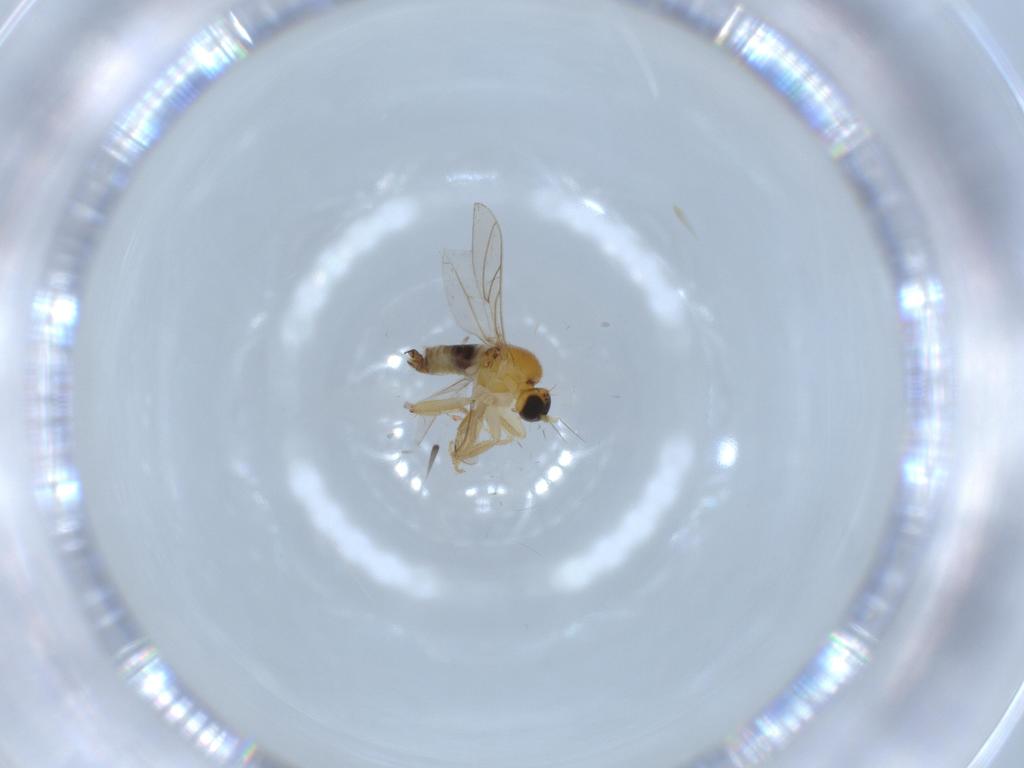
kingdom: Animalia
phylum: Arthropoda
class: Insecta
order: Diptera
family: Hybotidae
